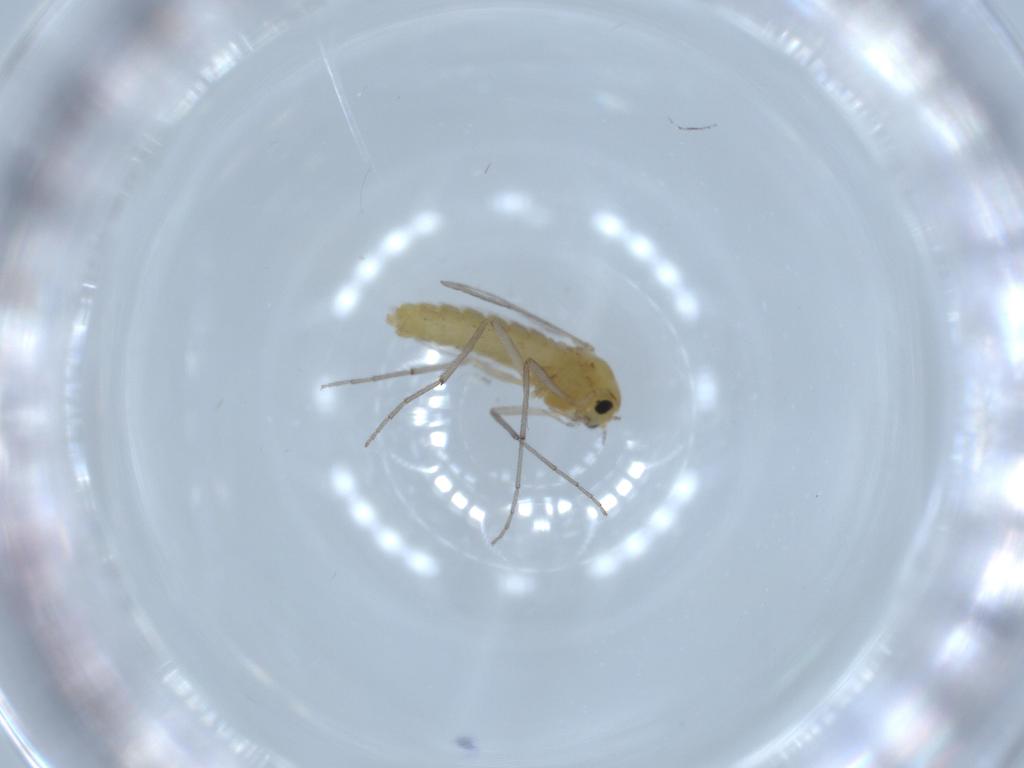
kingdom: Animalia
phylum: Arthropoda
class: Insecta
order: Diptera
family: Chironomidae
